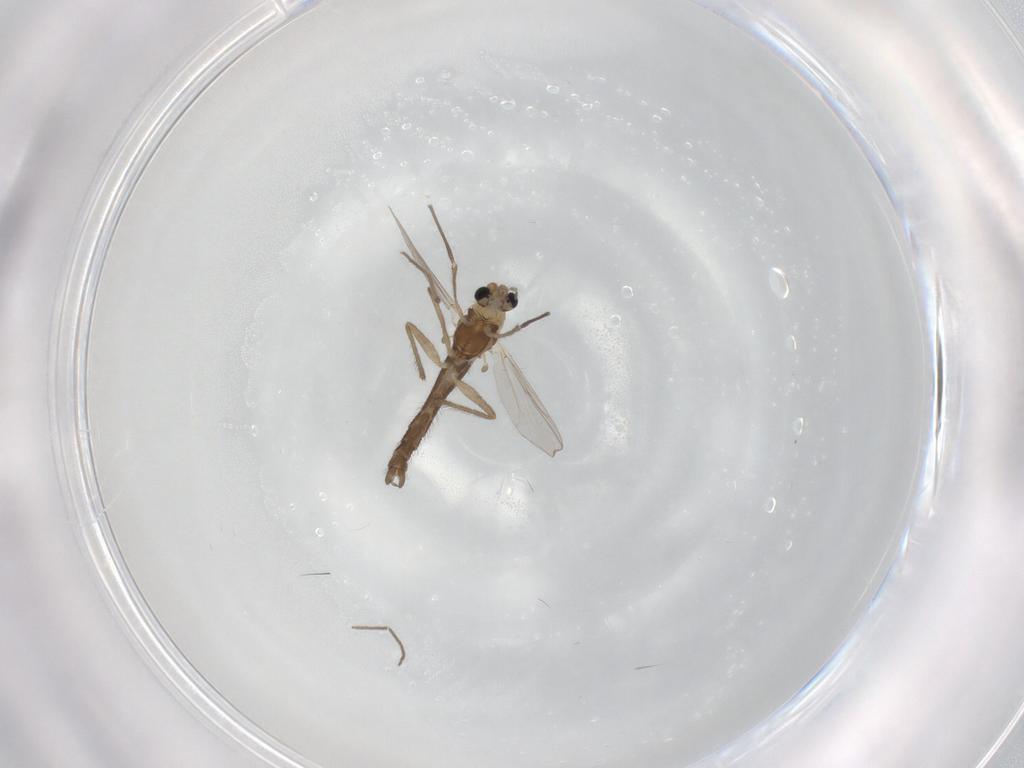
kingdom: Animalia
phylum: Arthropoda
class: Insecta
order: Diptera
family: Chironomidae
